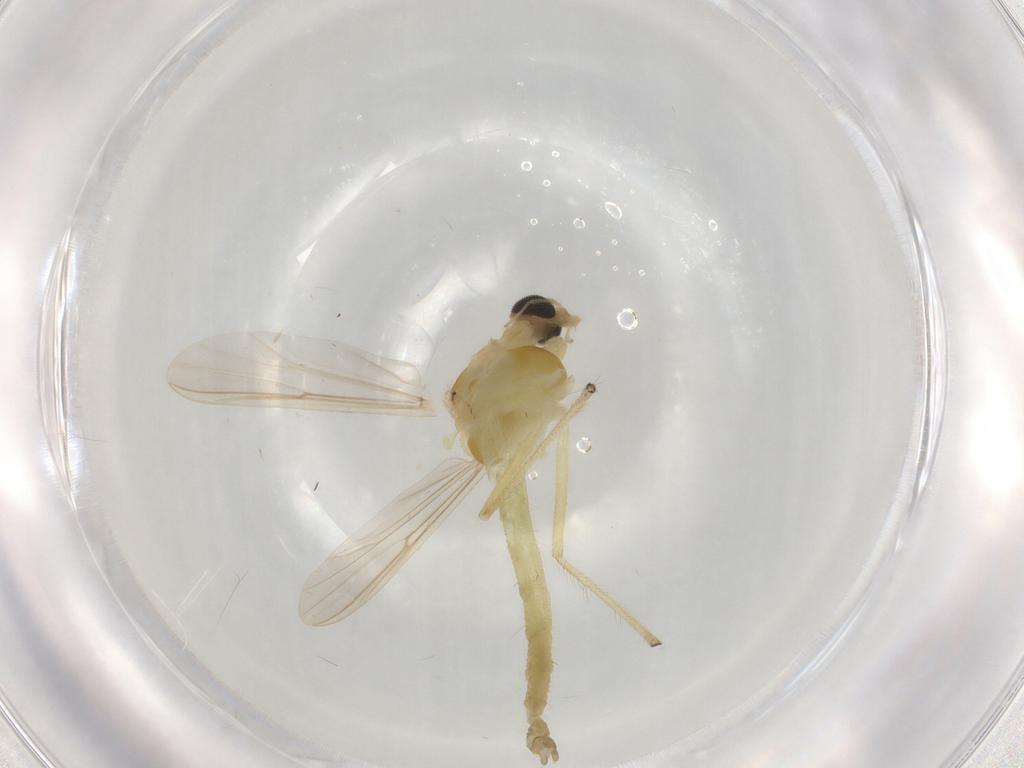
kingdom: Animalia
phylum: Arthropoda
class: Insecta
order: Diptera
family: Chironomidae
